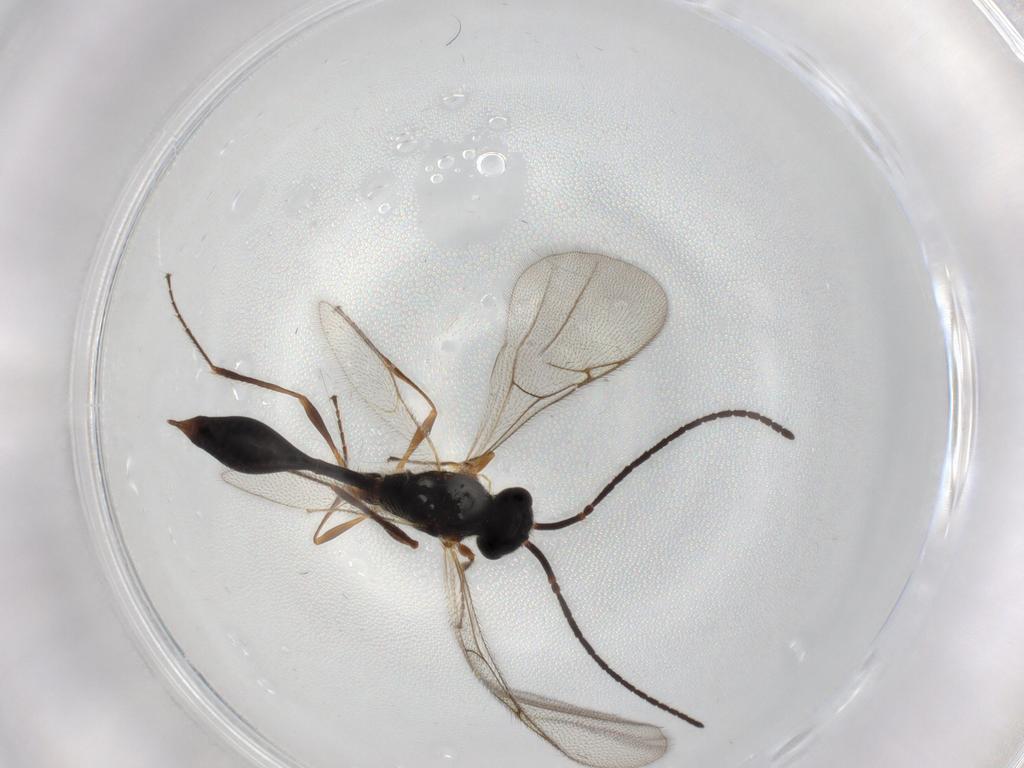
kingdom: Animalia
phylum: Arthropoda
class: Insecta
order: Hymenoptera
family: Diapriidae
